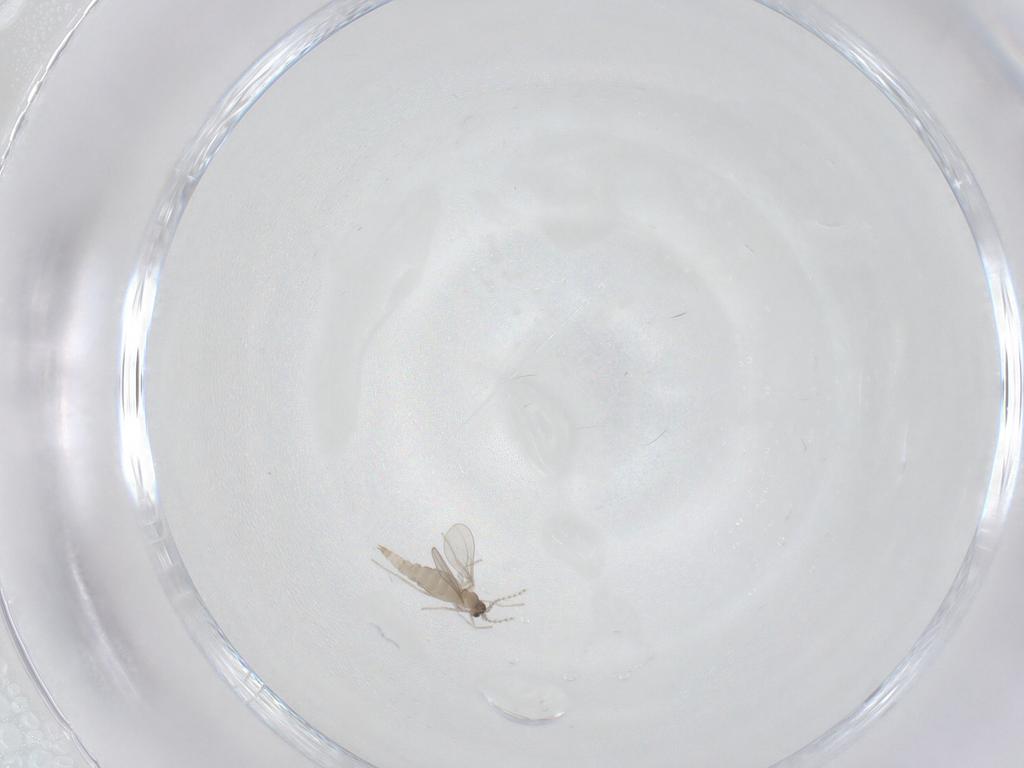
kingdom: Animalia
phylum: Arthropoda
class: Insecta
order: Diptera
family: Cecidomyiidae
